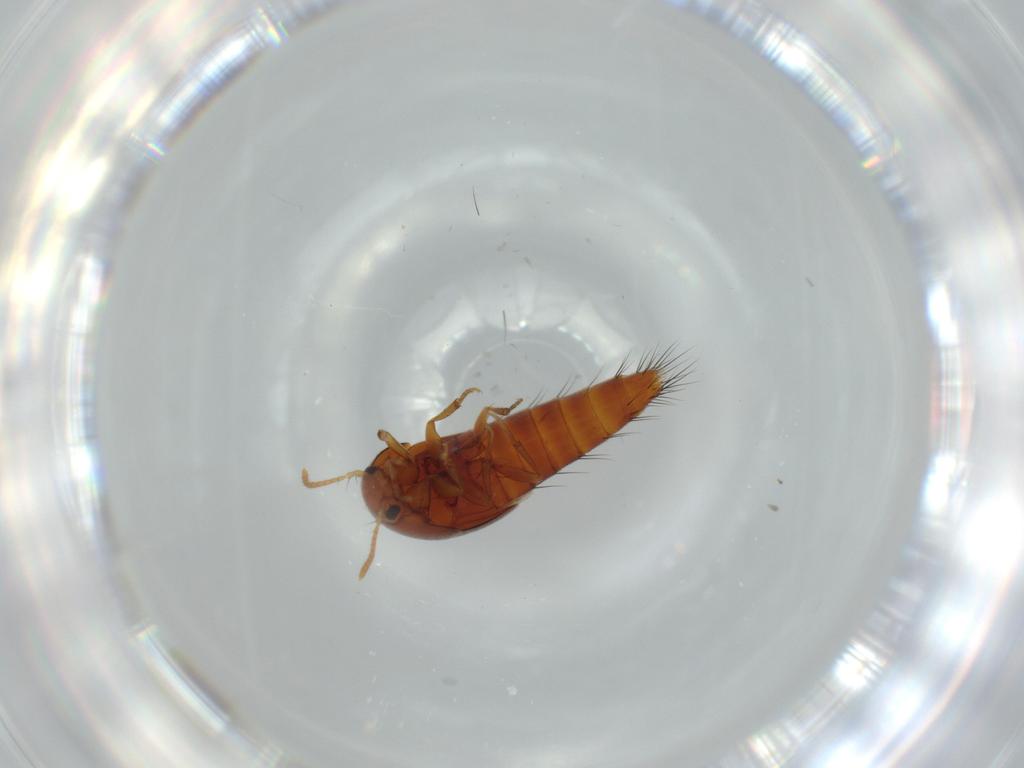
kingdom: Animalia
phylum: Arthropoda
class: Insecta
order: Coleoptera
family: Staphylinidae
